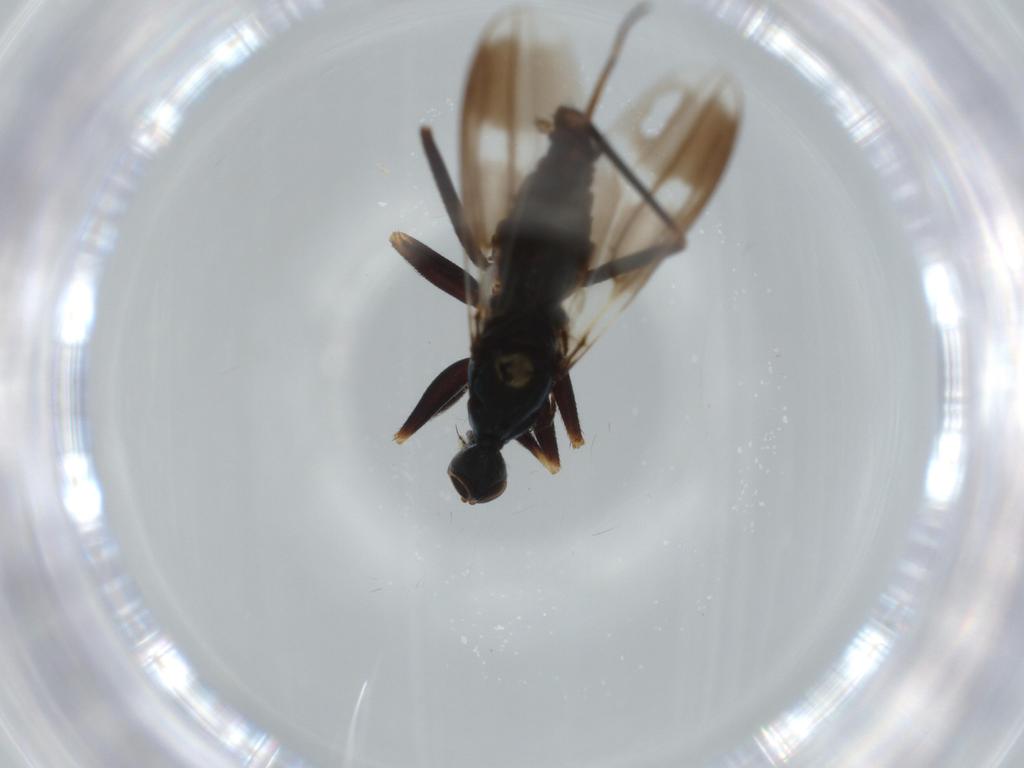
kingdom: Animalia
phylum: Arthropoda
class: Insecta
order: Diptera
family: Hybotidae
